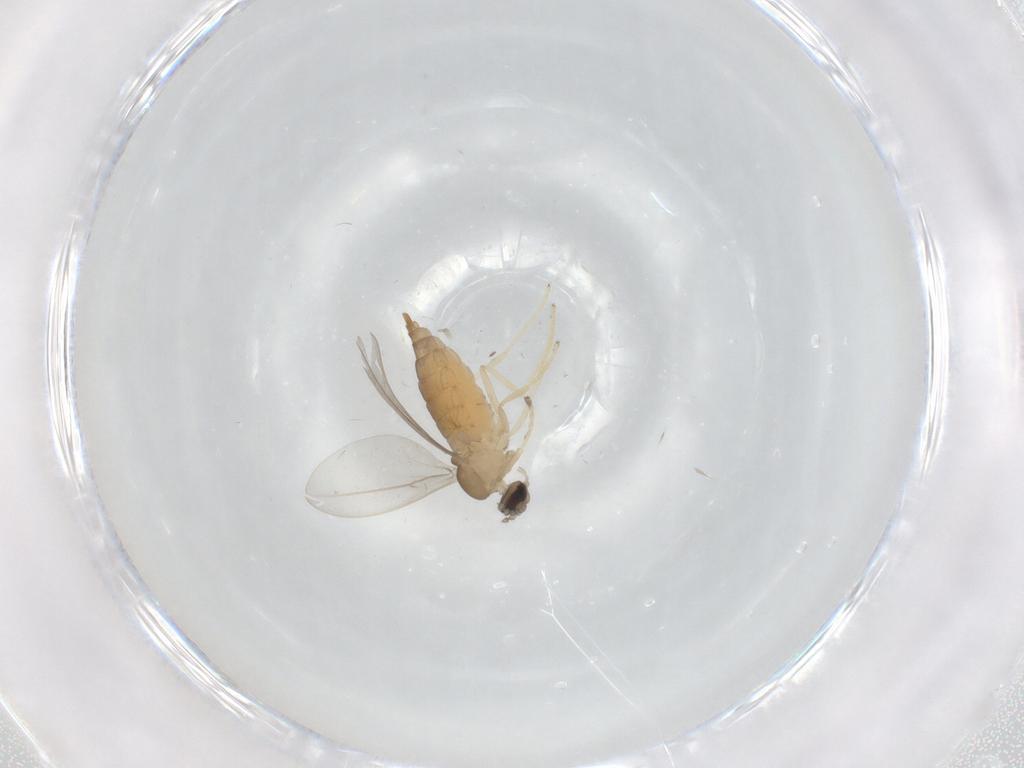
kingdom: Animalia
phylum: Arthropoda
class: Insecta
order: Diptera
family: Cecidomyiidae
